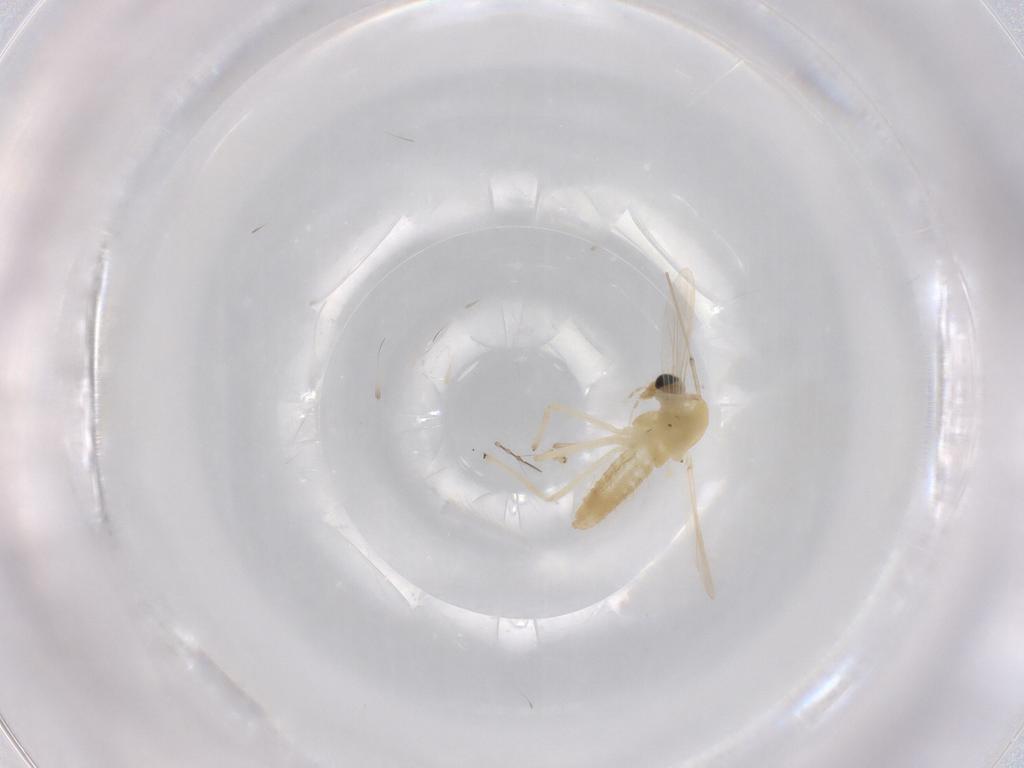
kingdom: Animalia
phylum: Arthropoda
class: Insecta
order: Diptera
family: Chironomidae
